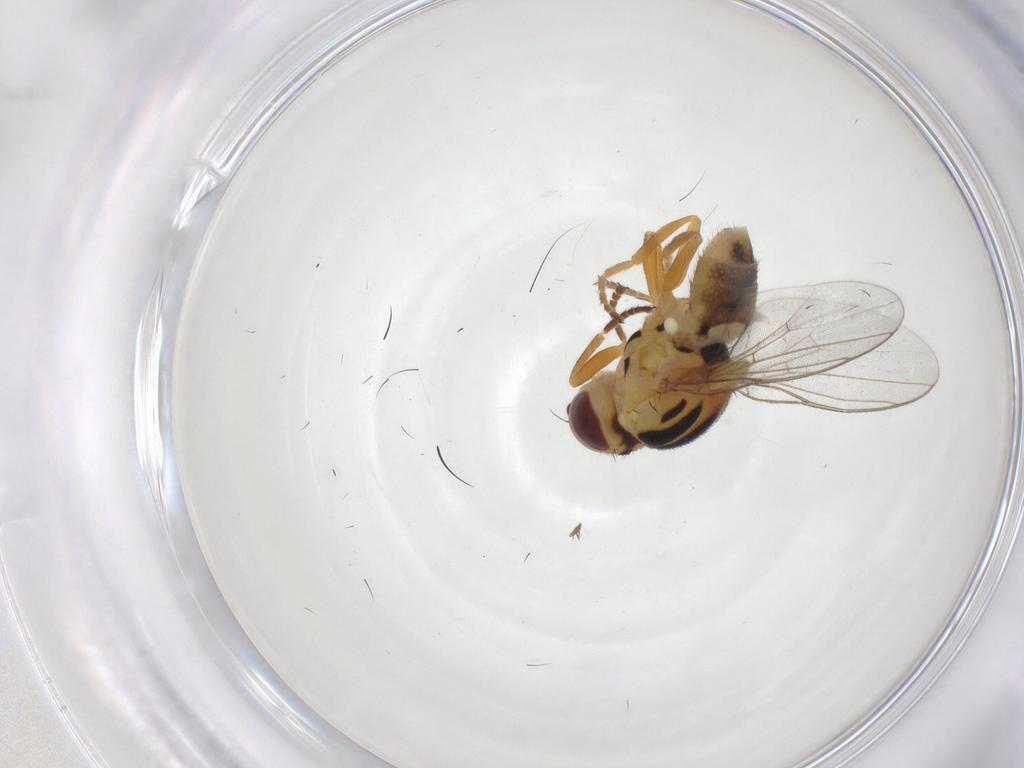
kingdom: Animalia
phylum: Arthropoda
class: Insecta
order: Diptera
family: Chloropidae
